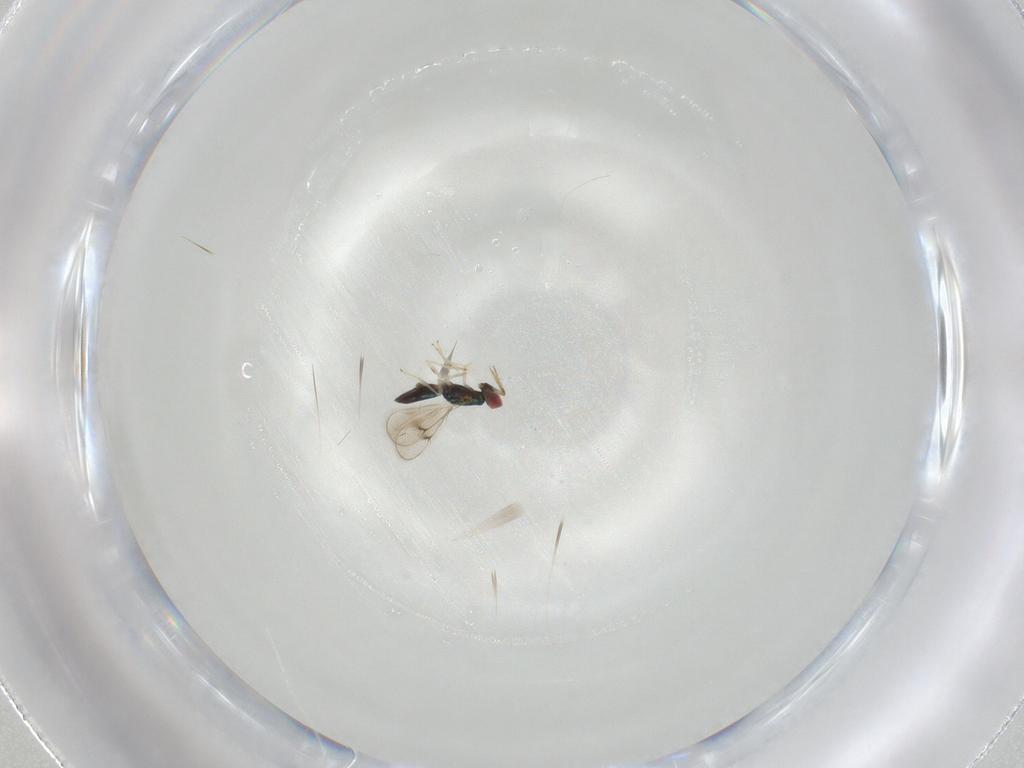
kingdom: Animalia
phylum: Arthropoda
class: Insecta
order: Hymenoptera
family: Eulophidae
